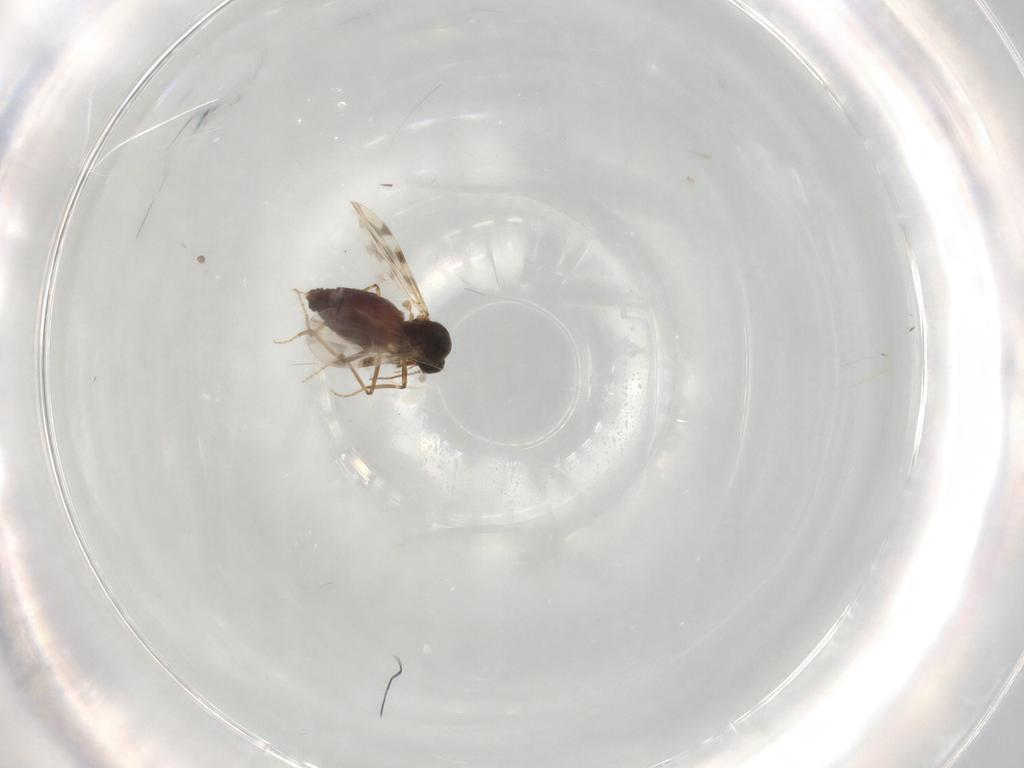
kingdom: Animalia
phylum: Arthropoda
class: Insecta
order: Diptera
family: Ceratopogonidae
